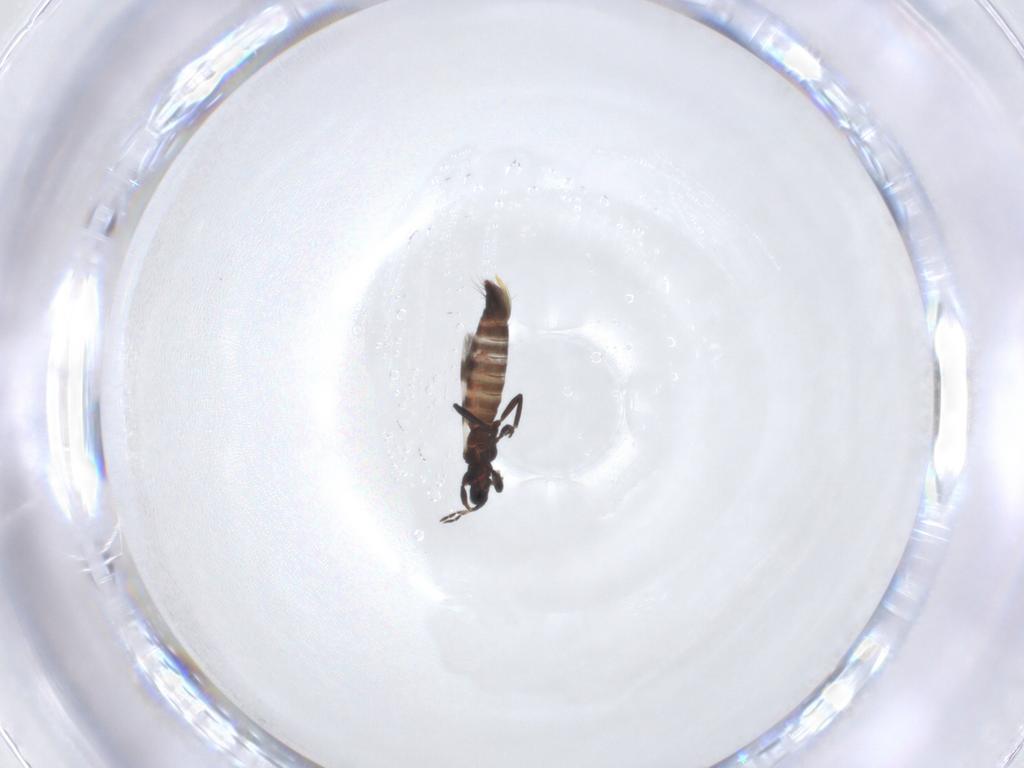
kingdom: Animalia
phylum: Arthropoda
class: Insecta
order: Thysanoptera
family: Aeolothripidae
